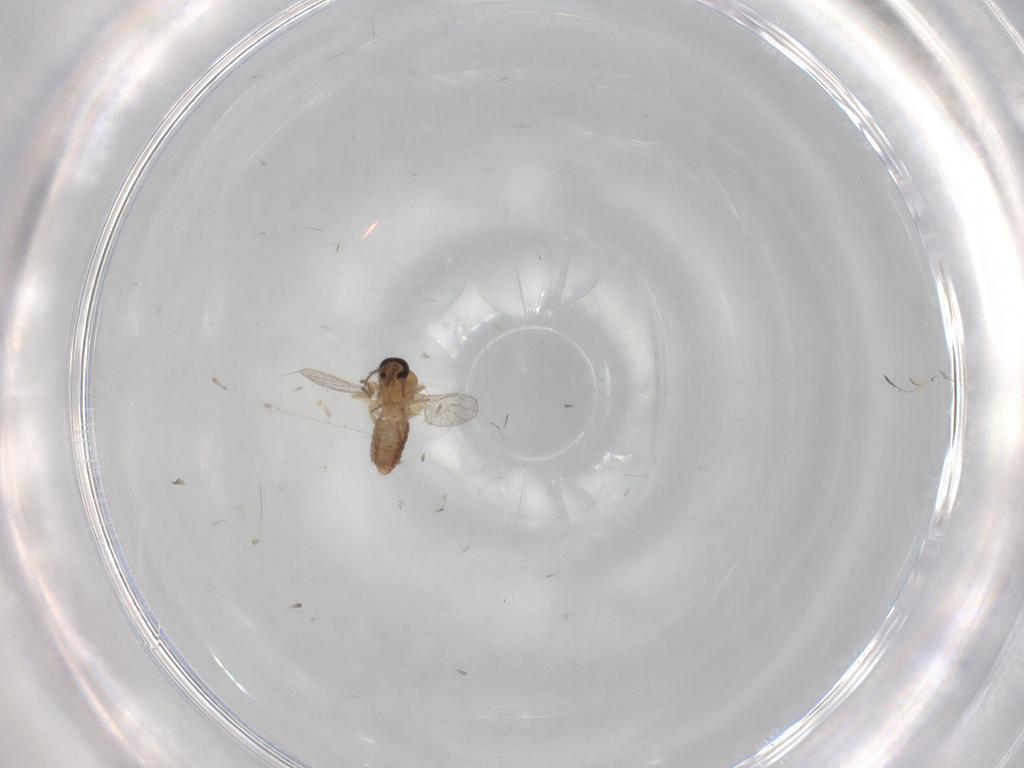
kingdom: Animalia
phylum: Arthropoda
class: Insecta
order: Diptera
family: Ceratopogonidae
